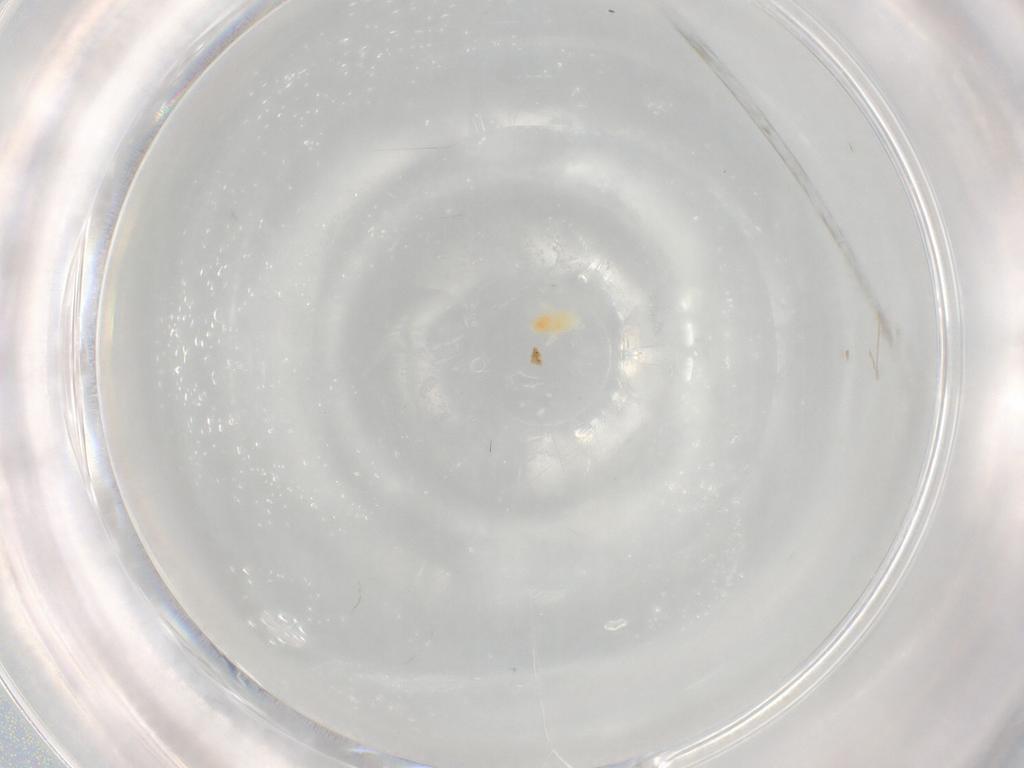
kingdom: Animalia
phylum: Arthropoda
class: Arachnida
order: Trombidiformes
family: Eupodidae
